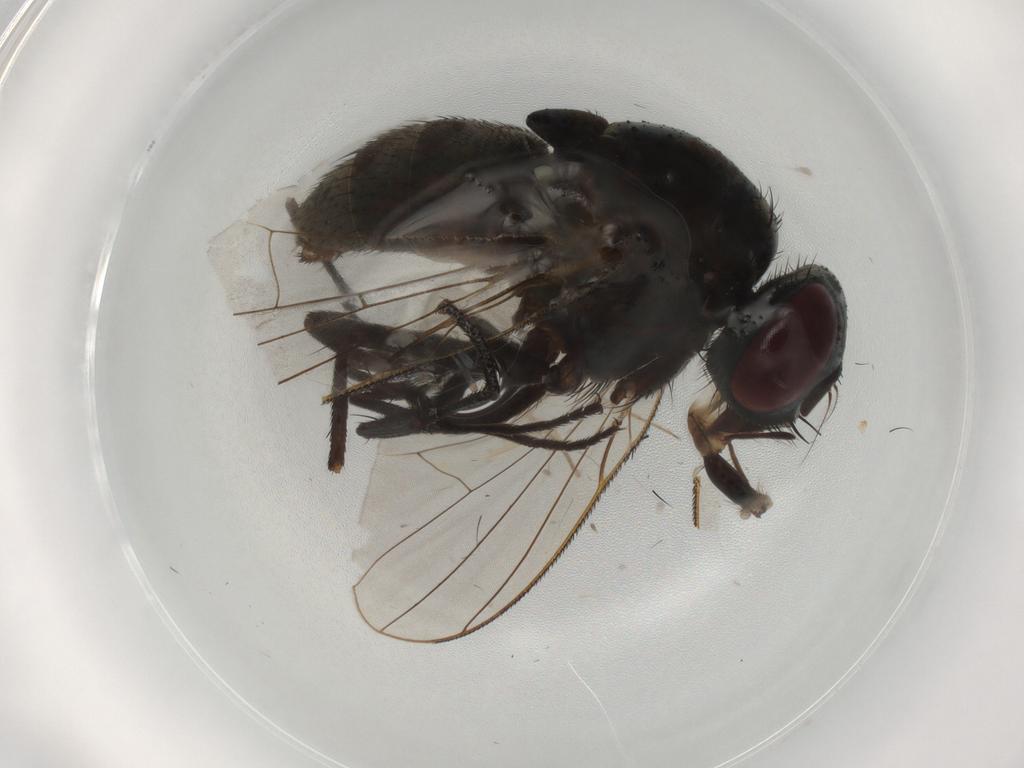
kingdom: Animalia
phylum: Arthropoda
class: Insecta
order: Diptera
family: Muscidae
